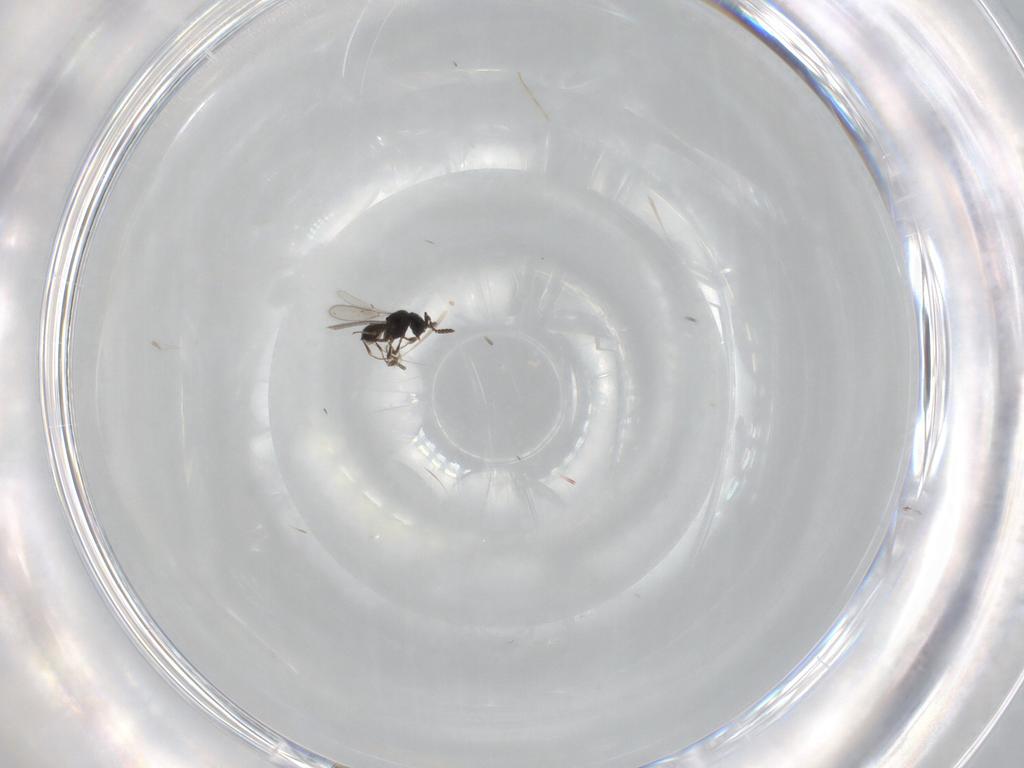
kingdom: Animalia
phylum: Arthropoda
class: Insecta
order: Hymenoptera
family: Scelionidae
